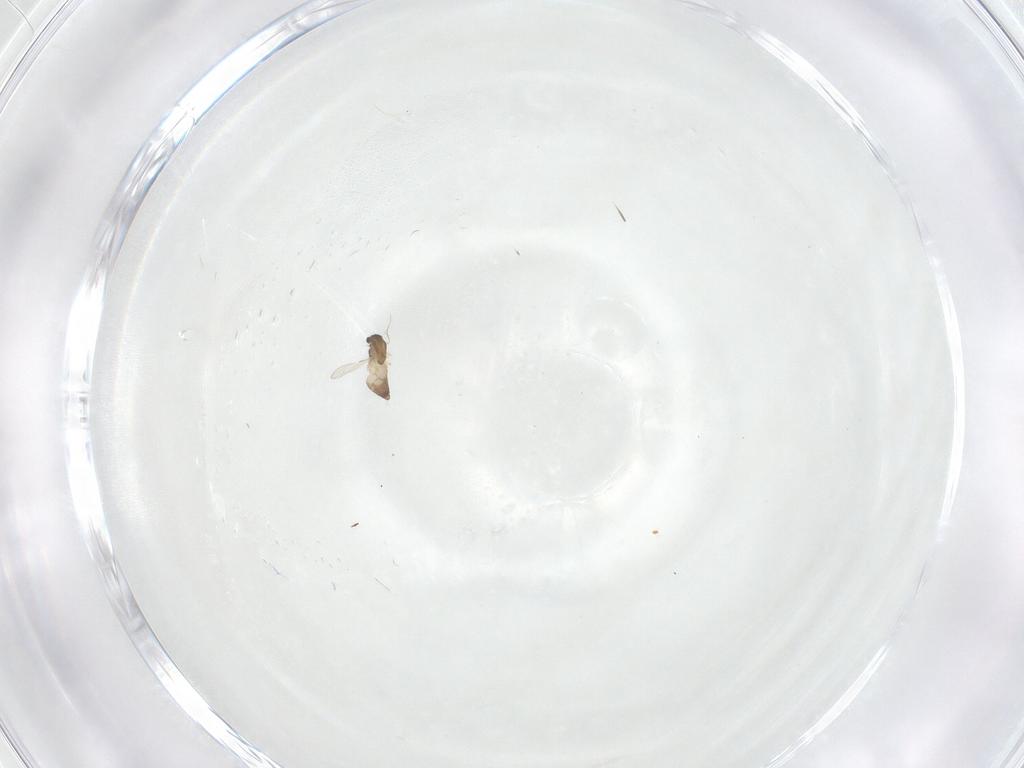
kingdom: Animalia
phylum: Arthropoda
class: Insecta
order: Diptera
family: Chironomidae
